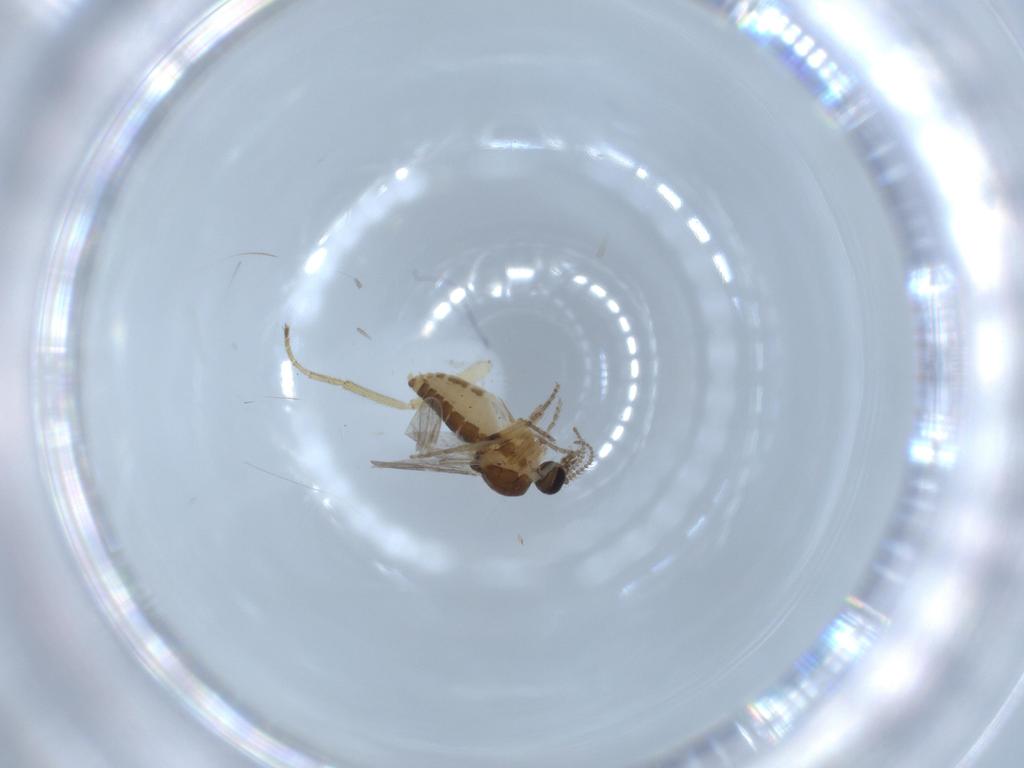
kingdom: Animalia
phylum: Arthropoda
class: Insecta
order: Diptera
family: Ceratopogonidae
